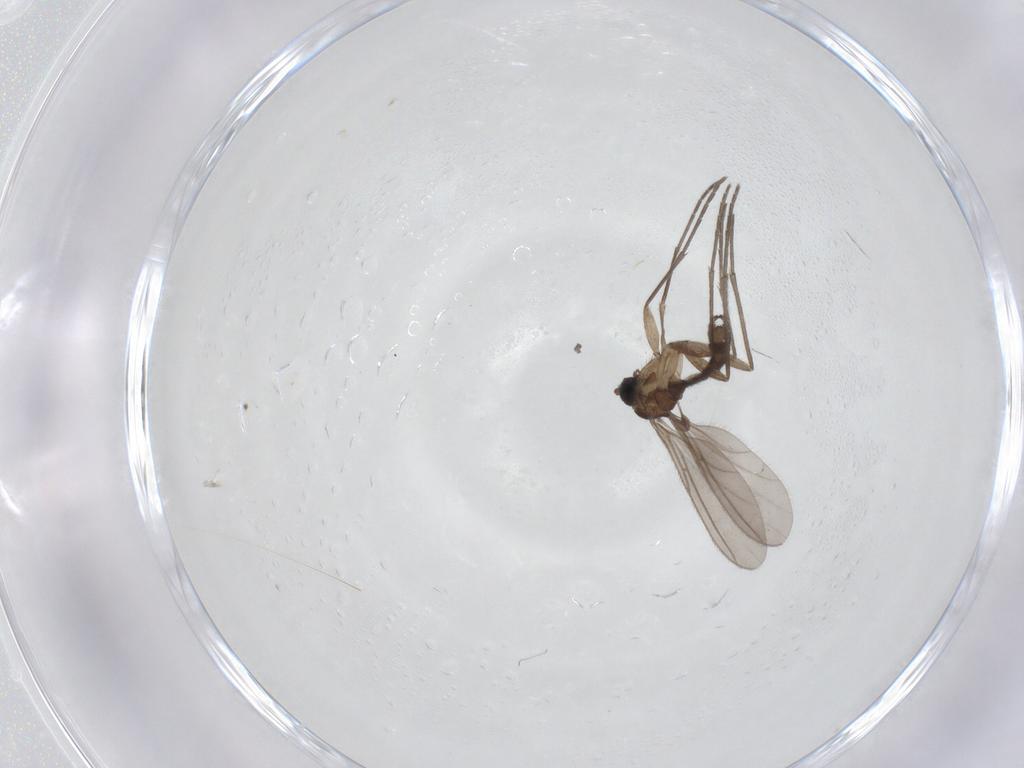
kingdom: Animalia
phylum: Arthropoda
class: Insecta
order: Diptera
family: Sciaridae
